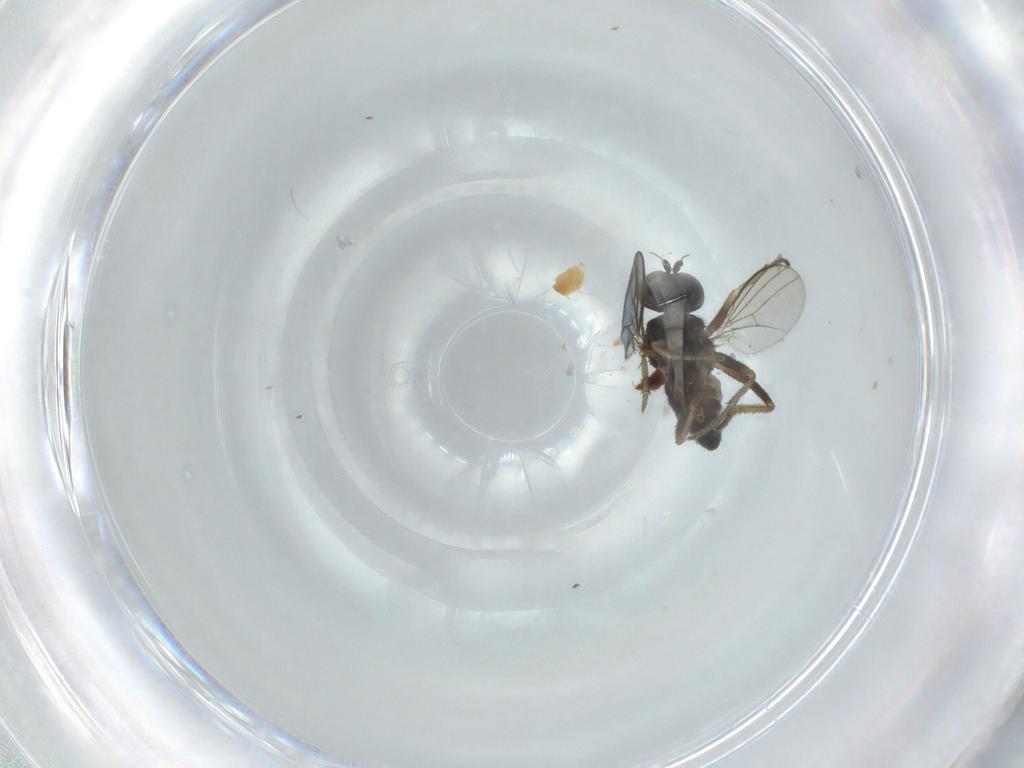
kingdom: Animalia
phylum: Arthropoda
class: Insecta
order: Diptera
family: Dolichopodidae
